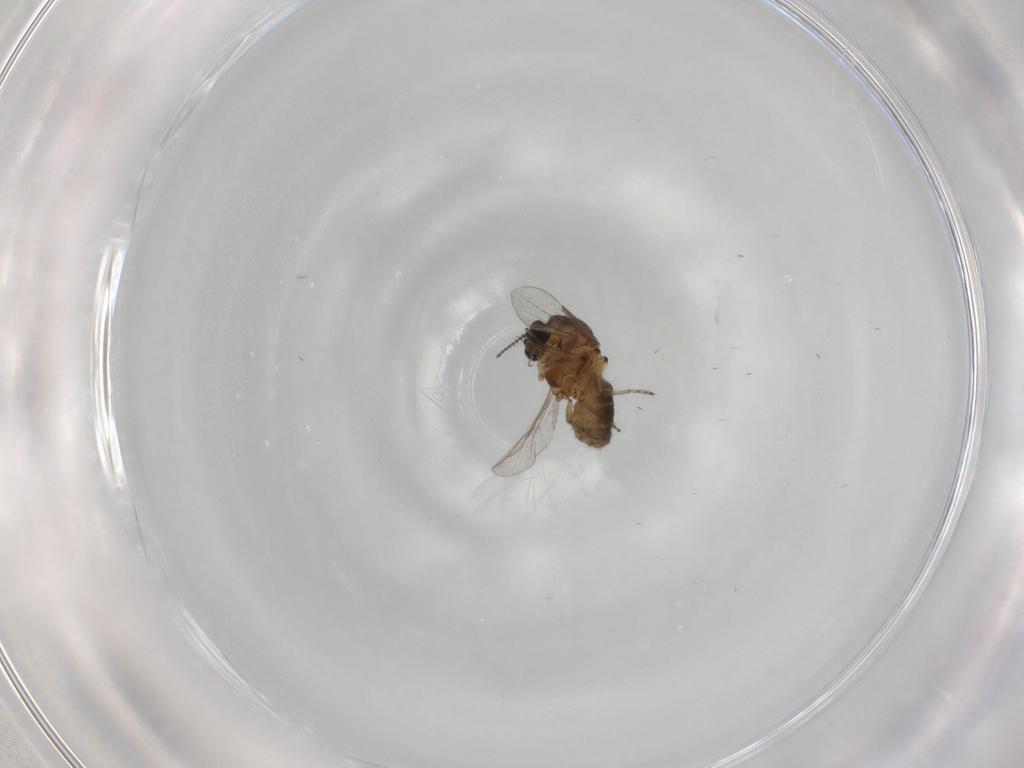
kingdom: Animalia
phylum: Arthropoda
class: Insecta
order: Diptera
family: Ceratopogonidae
